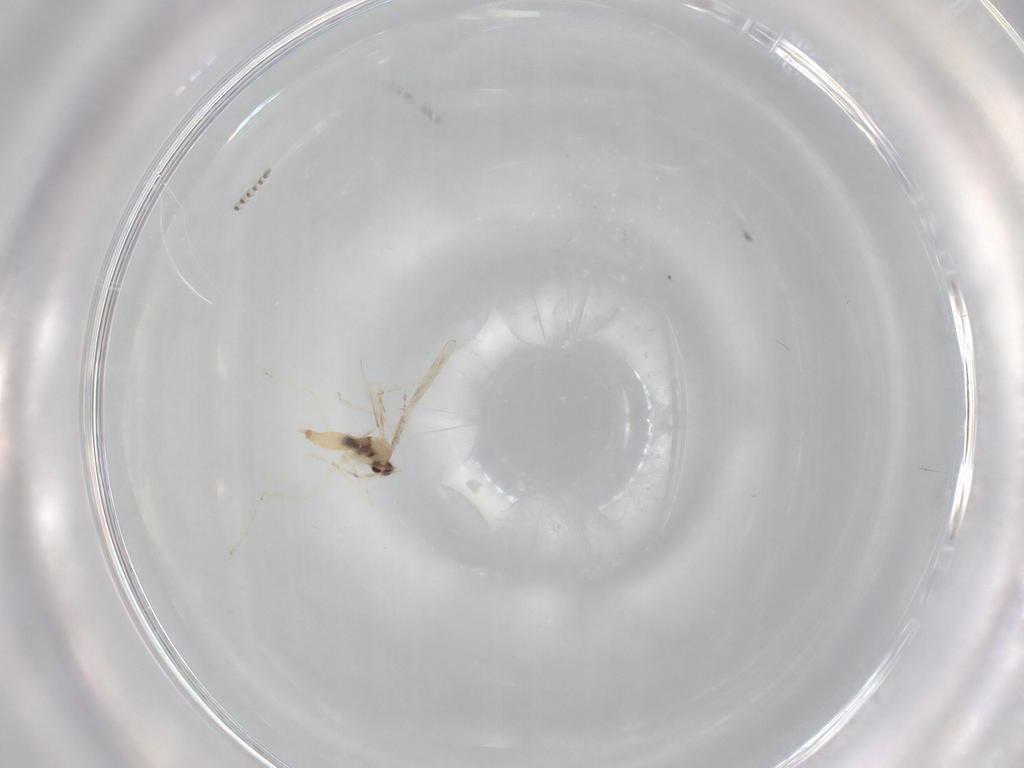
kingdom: Animalia
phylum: Arthropoda
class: Insecta
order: Diptera
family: Psychodidae
